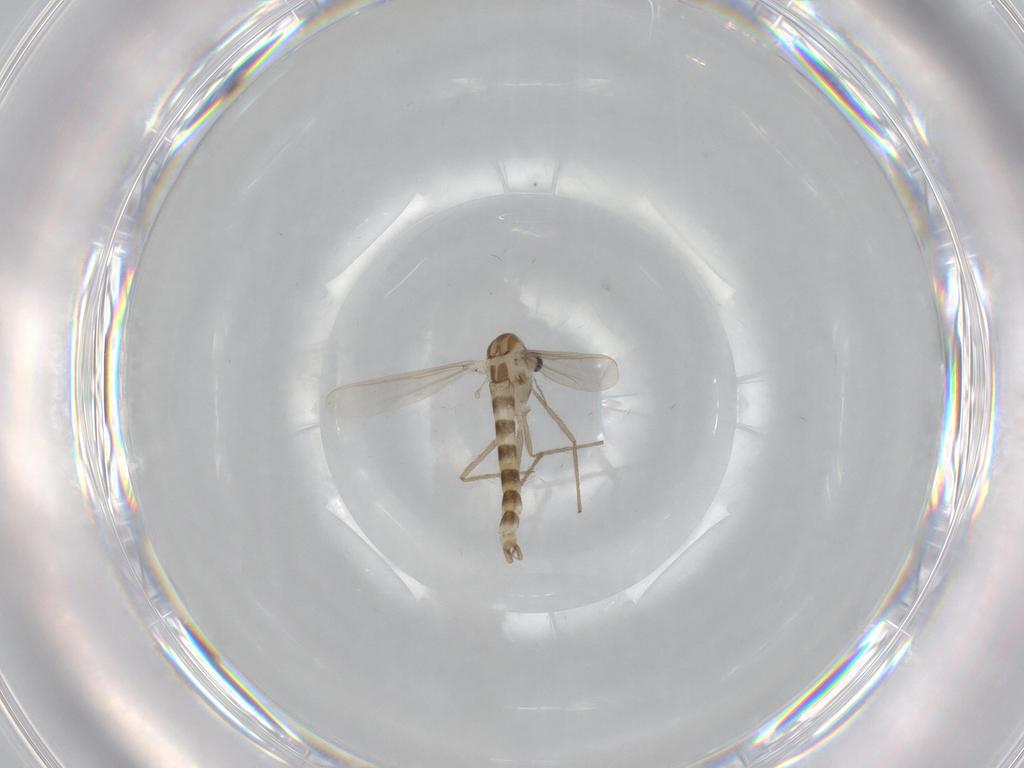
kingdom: Animalia
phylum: Arthropoda
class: Insecta
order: Diptera
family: Chironomidae
